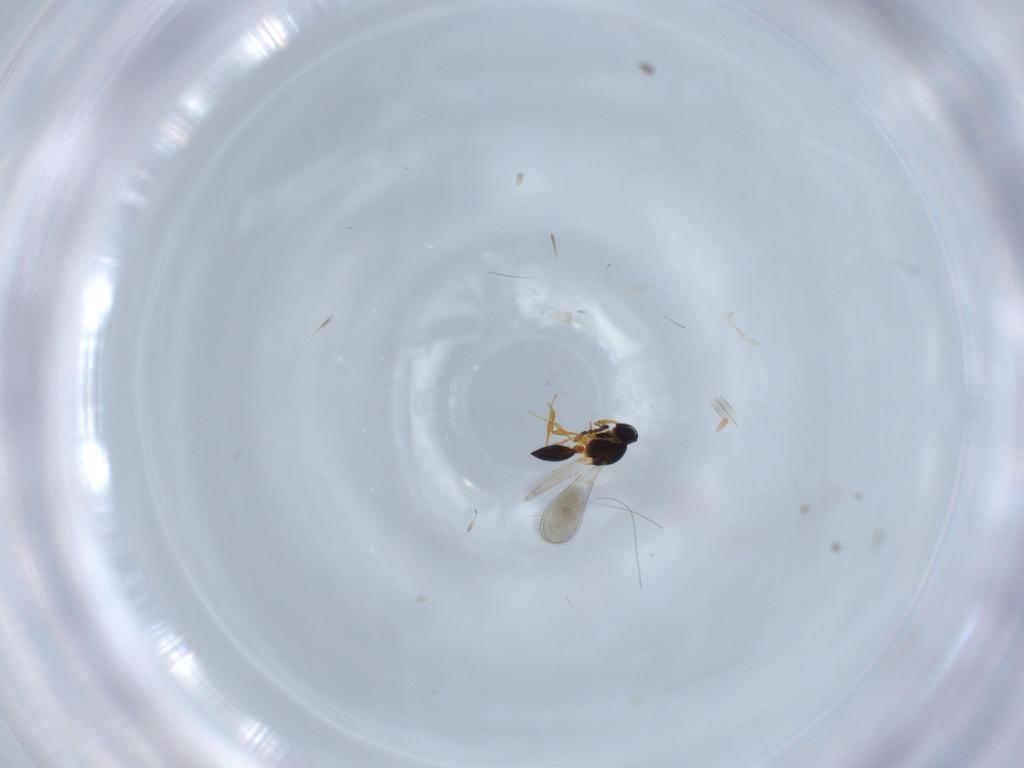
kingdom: Animalia
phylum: Arthropoda
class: Insecta
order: Hymenoptera
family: Platygastridae
